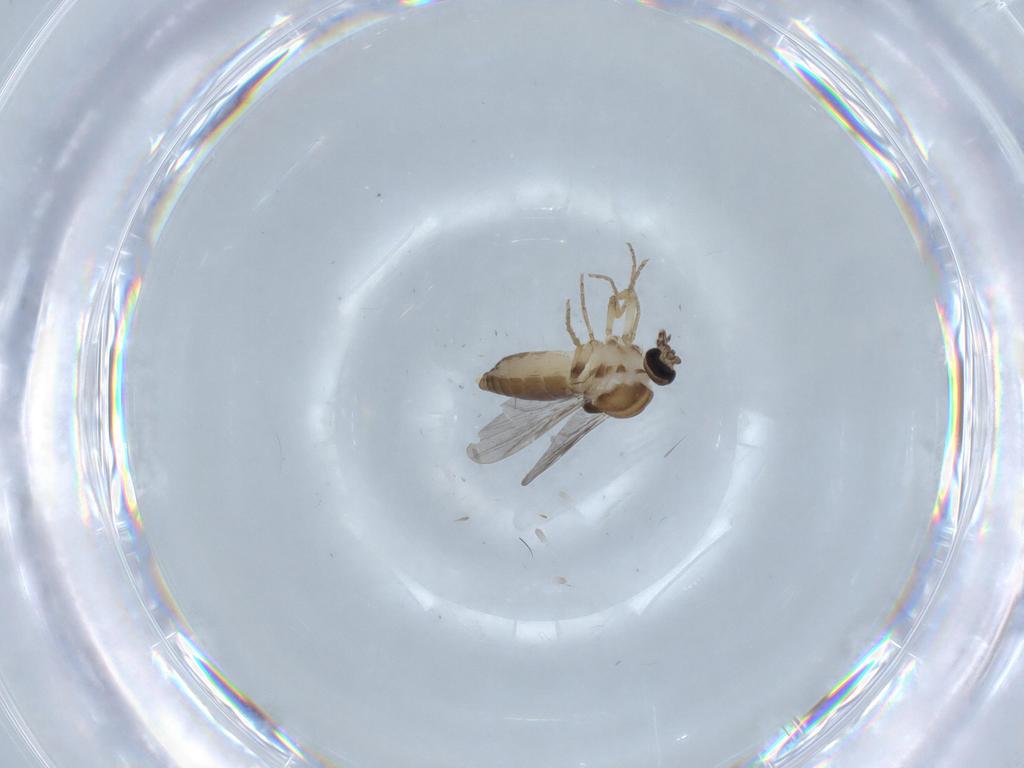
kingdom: Animalia
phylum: Arthropoda
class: Insecta
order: Diptera
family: Ceratopogonidae
